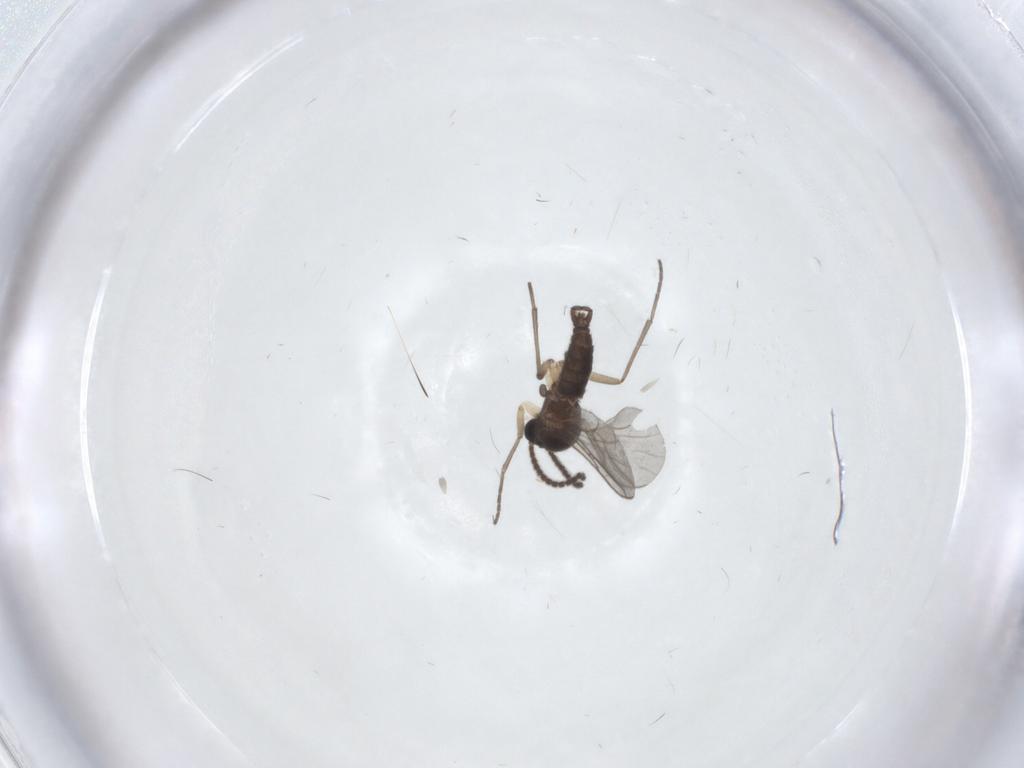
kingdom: Animalia
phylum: Arthropoda
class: Insecta
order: Diptera
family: Sciaridae
